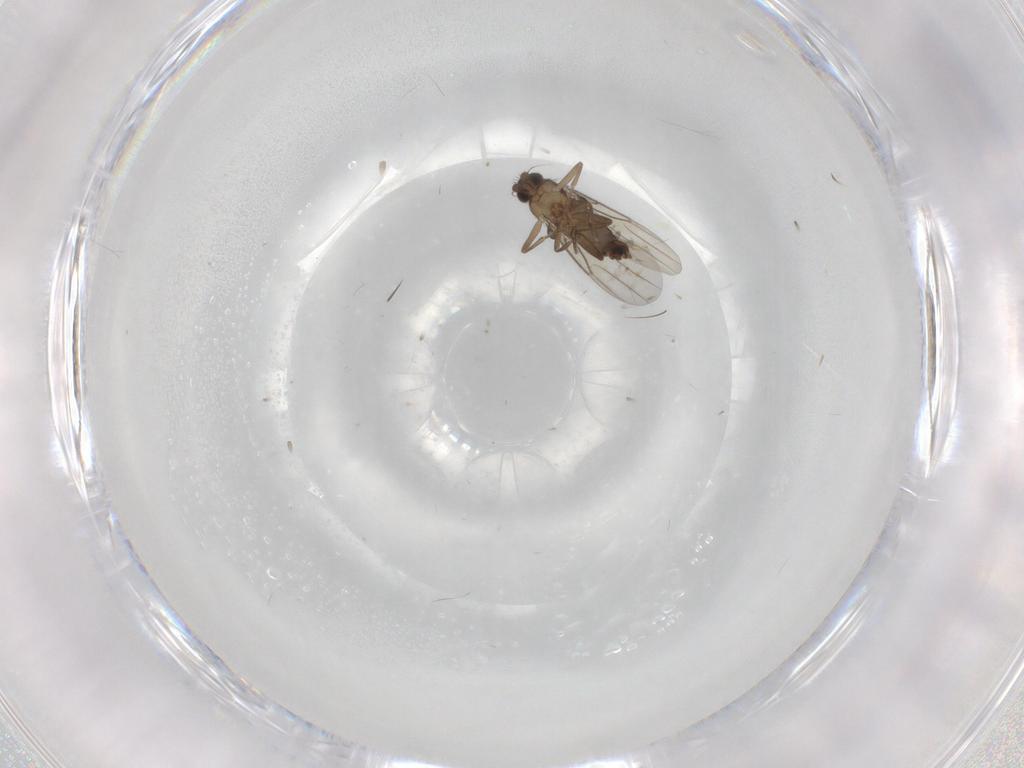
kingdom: Animalia
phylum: Arthropoda
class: Insecta
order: Diptera
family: Phoridae
